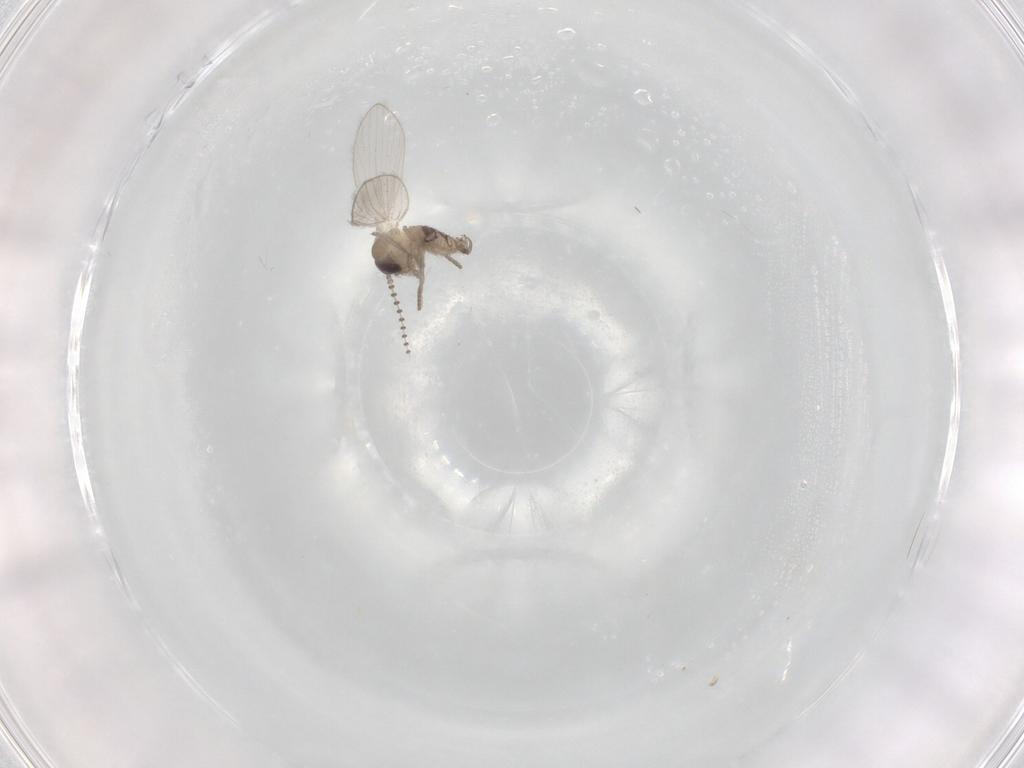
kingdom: Animalia
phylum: Arthropoda
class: Insecta
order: Diptera
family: Psychodidae
